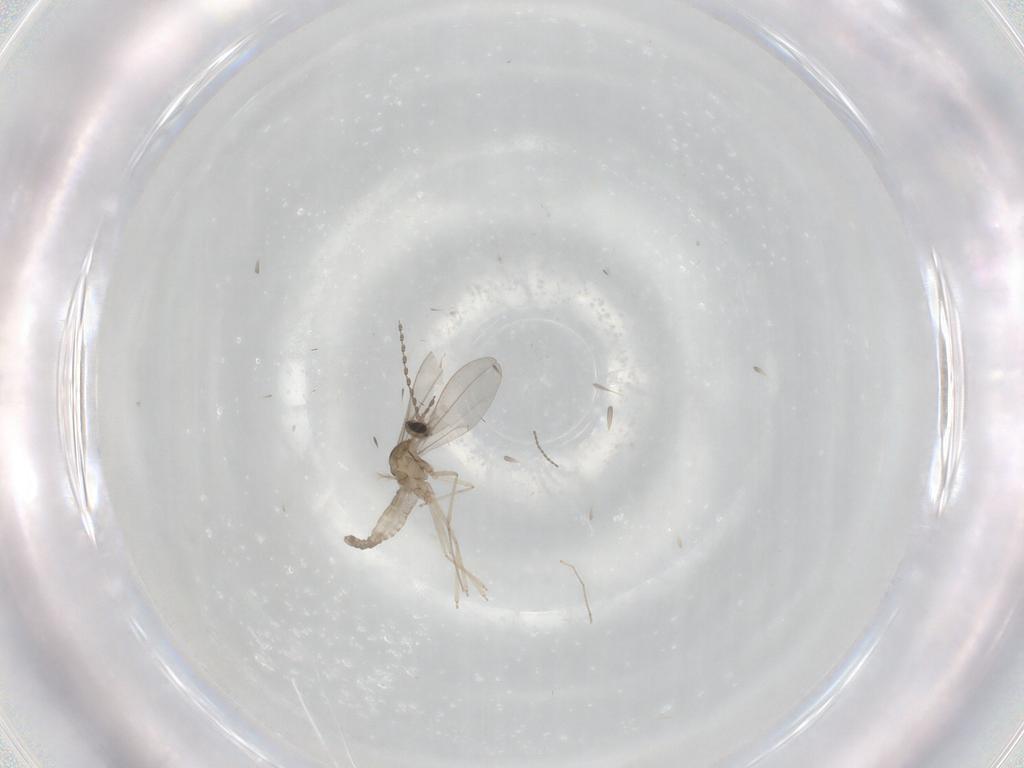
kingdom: Animalia
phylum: Arthropoda
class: Insecta
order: Diptera
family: Cecidomyiidae
